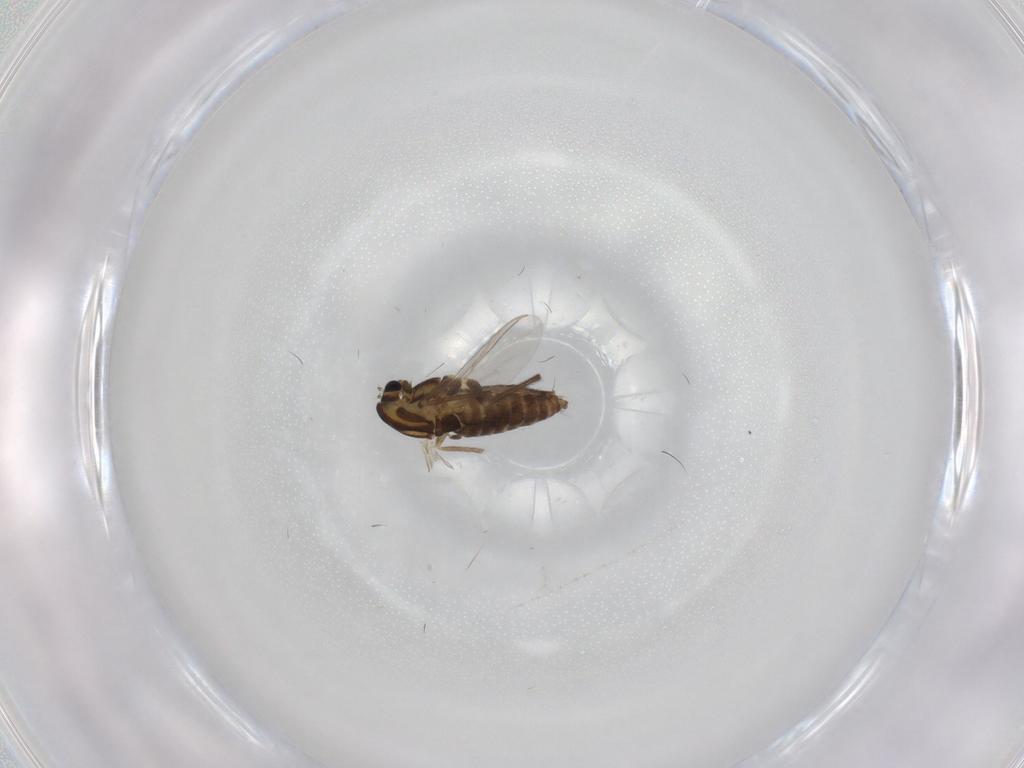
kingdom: Animalia
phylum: Arthropoda
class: Insecta
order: Diptera
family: Chironomidae
